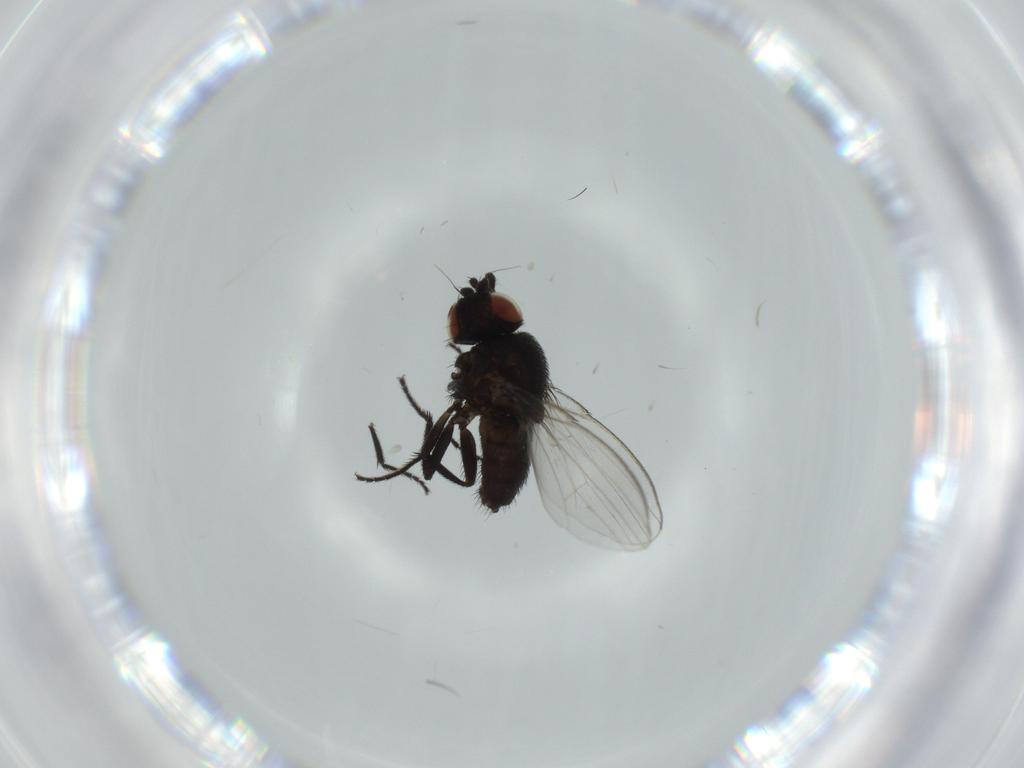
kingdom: Animalia
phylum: Arthropoda
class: Insecta
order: Diptera
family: Milichiidae
